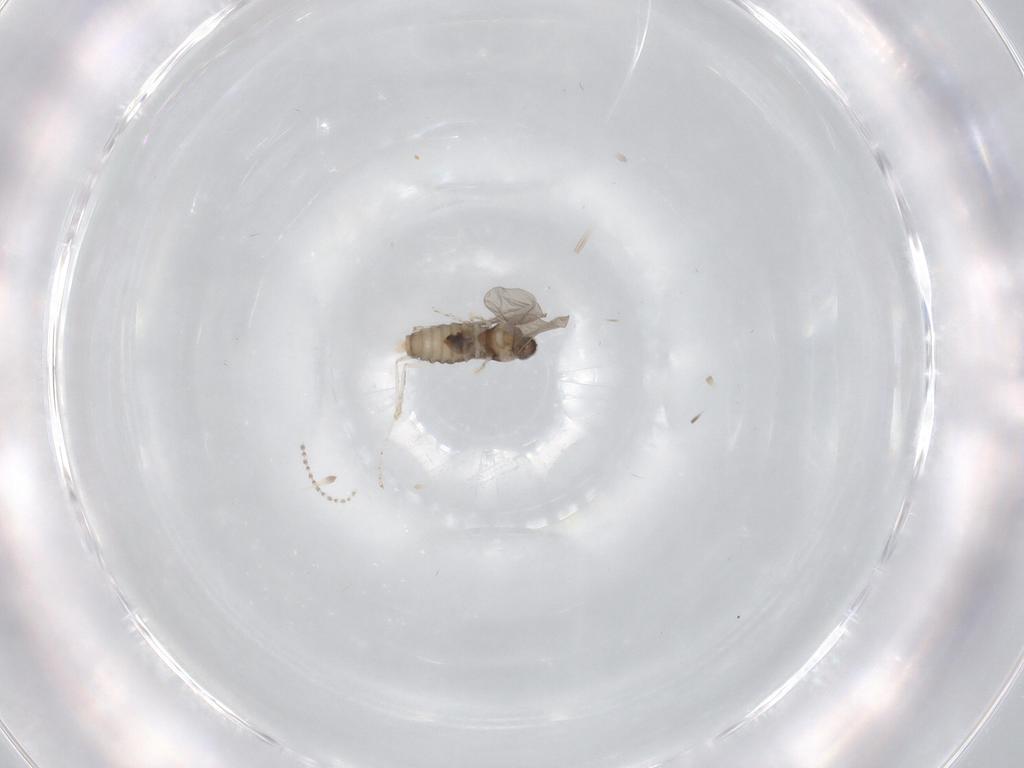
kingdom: Animalia
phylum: Arthropoda
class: Insecta
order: Diptera
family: Cecidomyiidae
